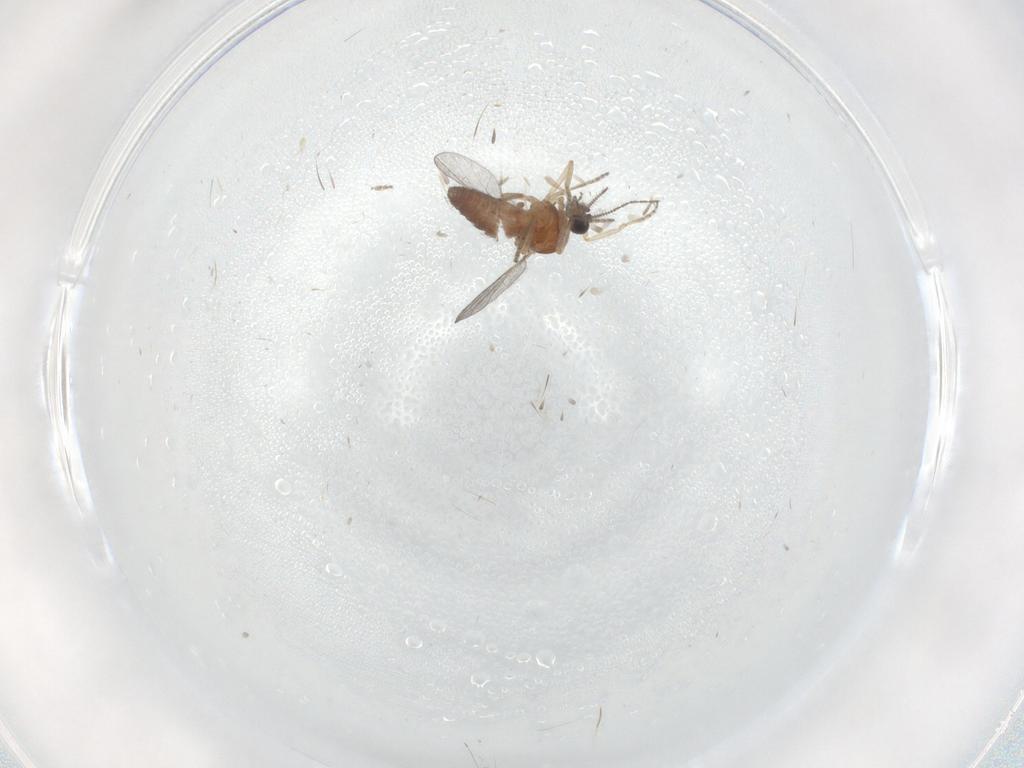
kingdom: Animalia
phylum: Arthropoda
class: Insecta
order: Diptera
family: Ceratopogonidae
